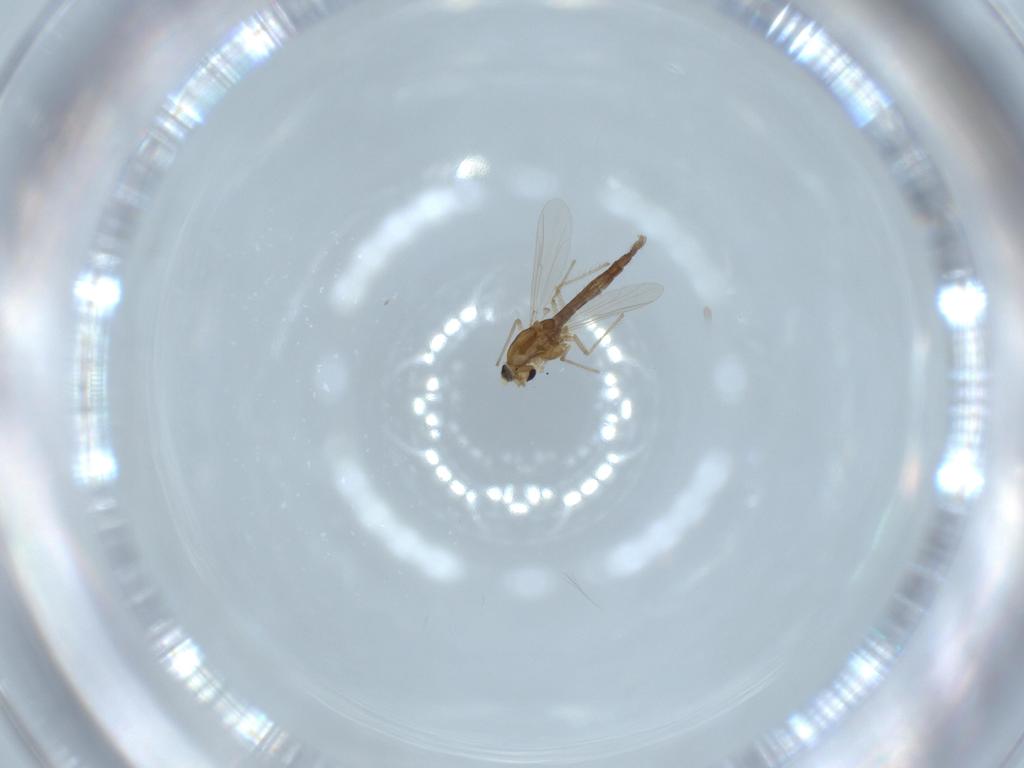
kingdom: Animalia
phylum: Arthropoda
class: Insecta
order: Diptera
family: Chironomidae
